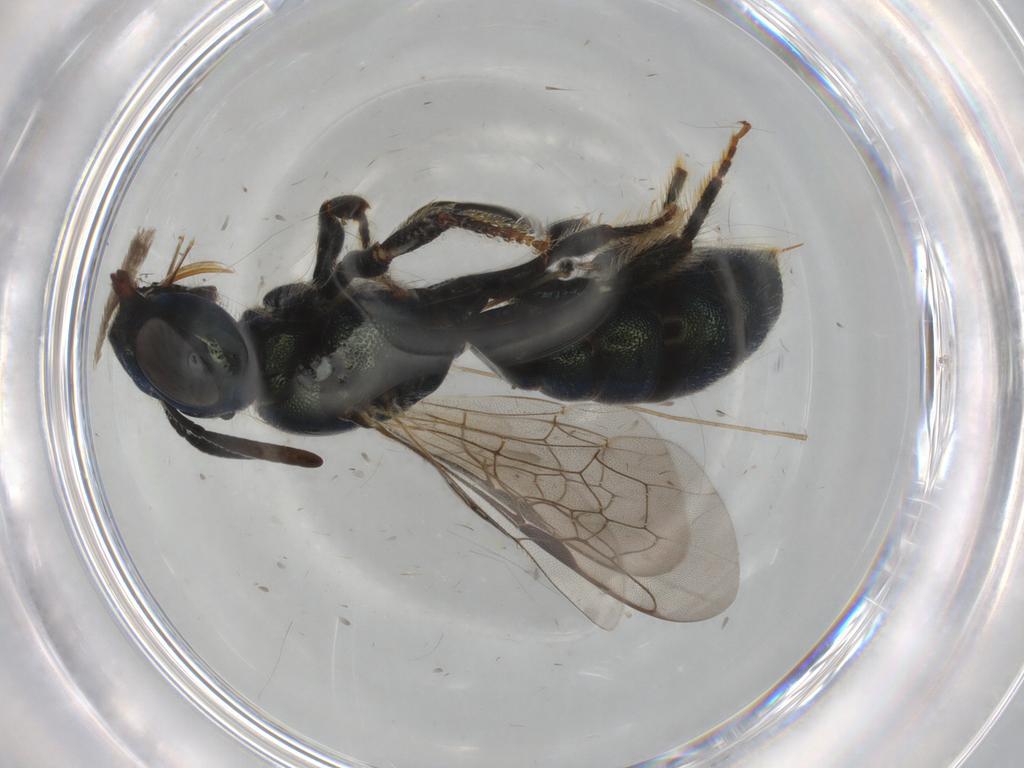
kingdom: Animalia
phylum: Arthropoda
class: Insecta
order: Hymenoptera
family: Apidae
